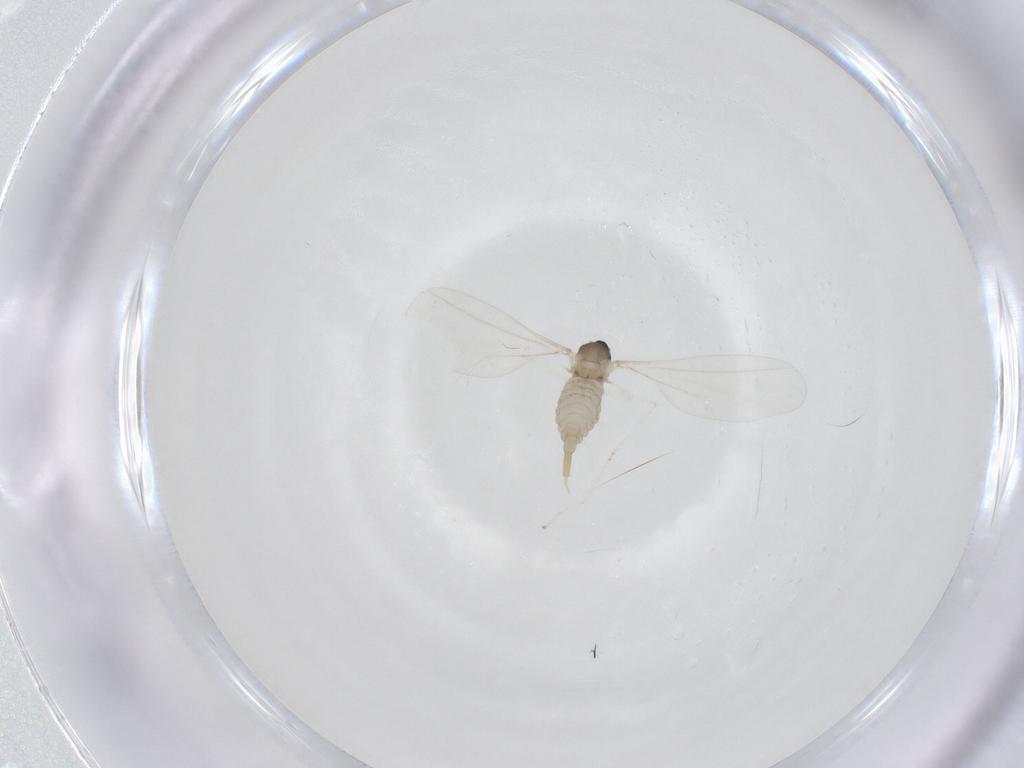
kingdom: Animalia
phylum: Arthropoda
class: Insecta
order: Diptera
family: Cecidomyiidae
